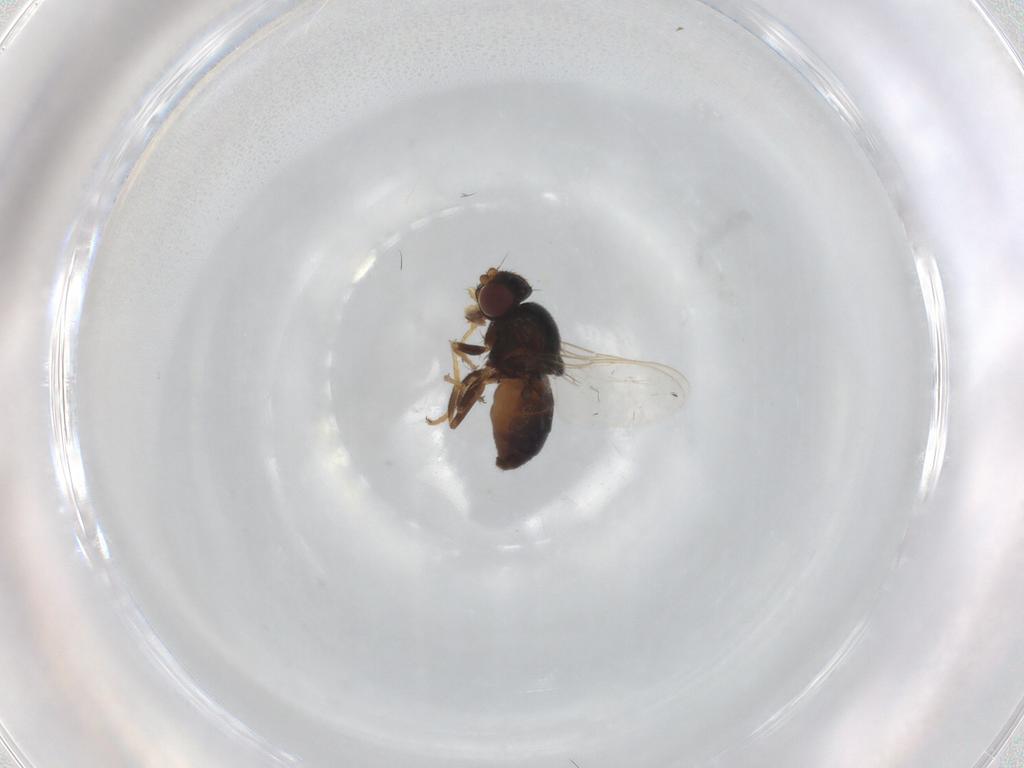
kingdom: Animalia
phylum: Arthropoda
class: Insecta
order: Diptera
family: Chloropidae
